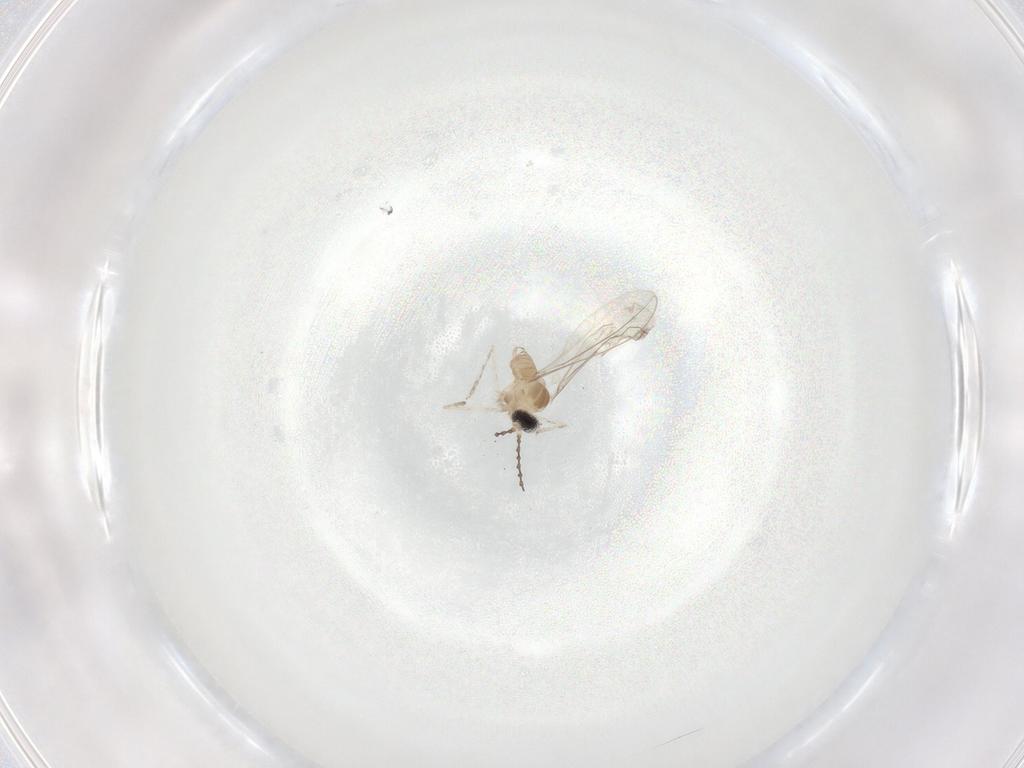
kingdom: Animalia
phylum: Arthropoda
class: Insecta
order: Diptera
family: Cecidomyiidae
